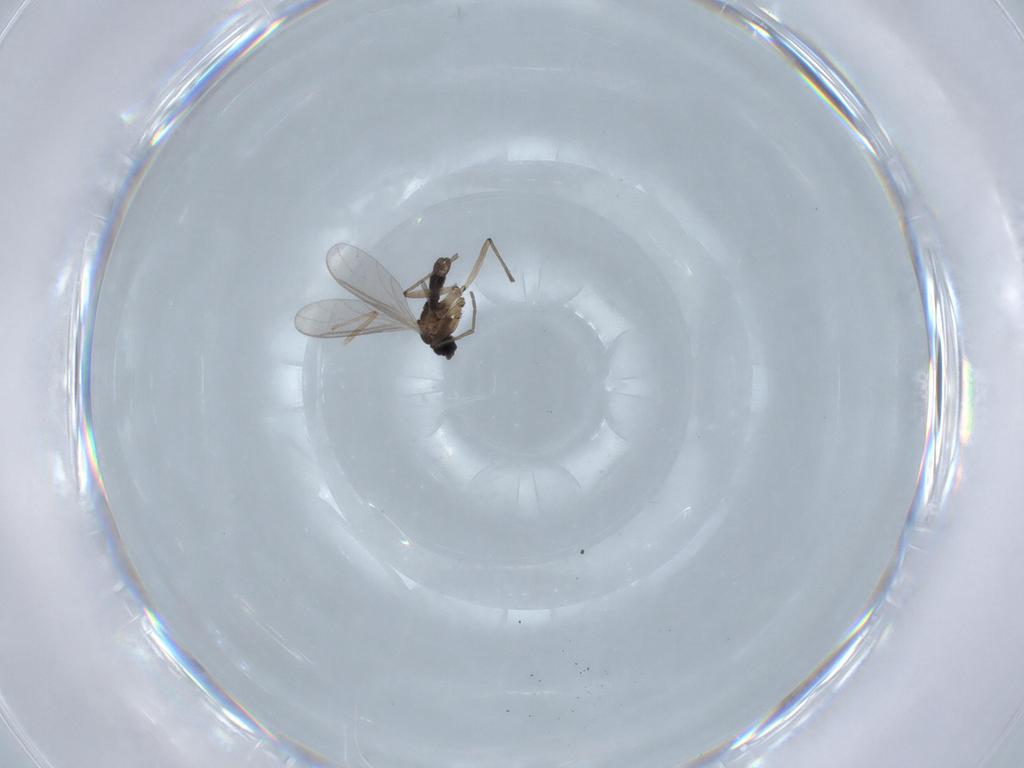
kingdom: Animalia
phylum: Arthropoda
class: Insecta
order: Diptera
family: Sciaridae
